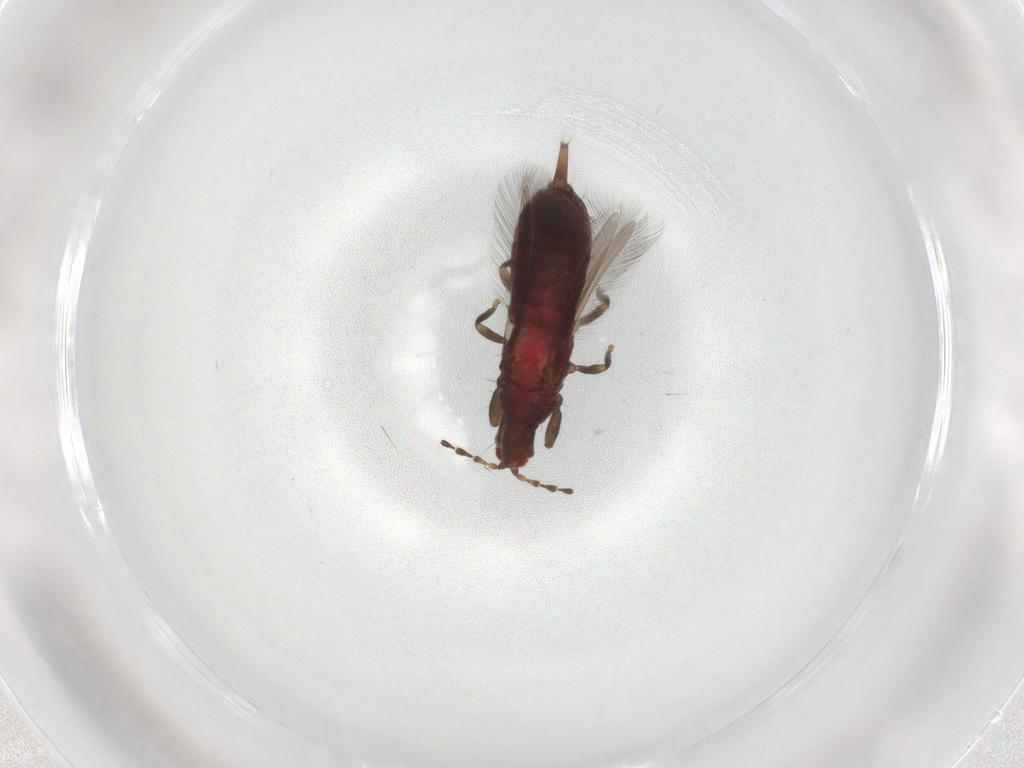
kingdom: Animalia
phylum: Arthropoda
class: Insecta
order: Thysanoptera
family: Phlaeothripidae
